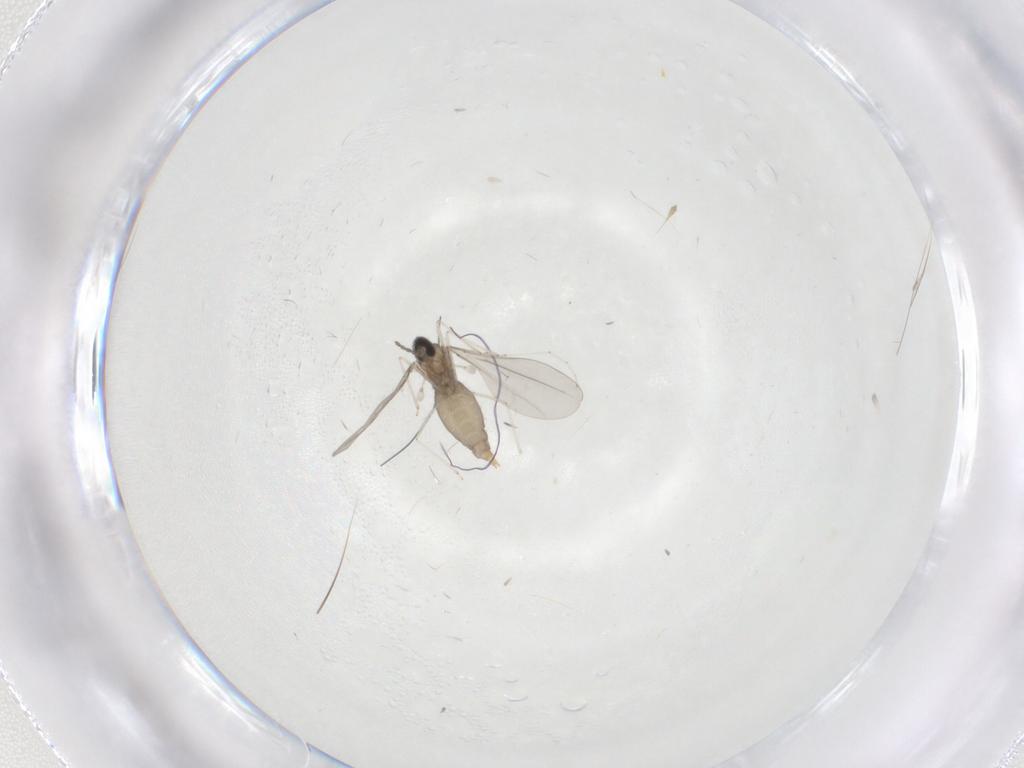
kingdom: Animalia
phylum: Arthropoda
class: Insecta
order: Diptera
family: Cecidomyiidae
